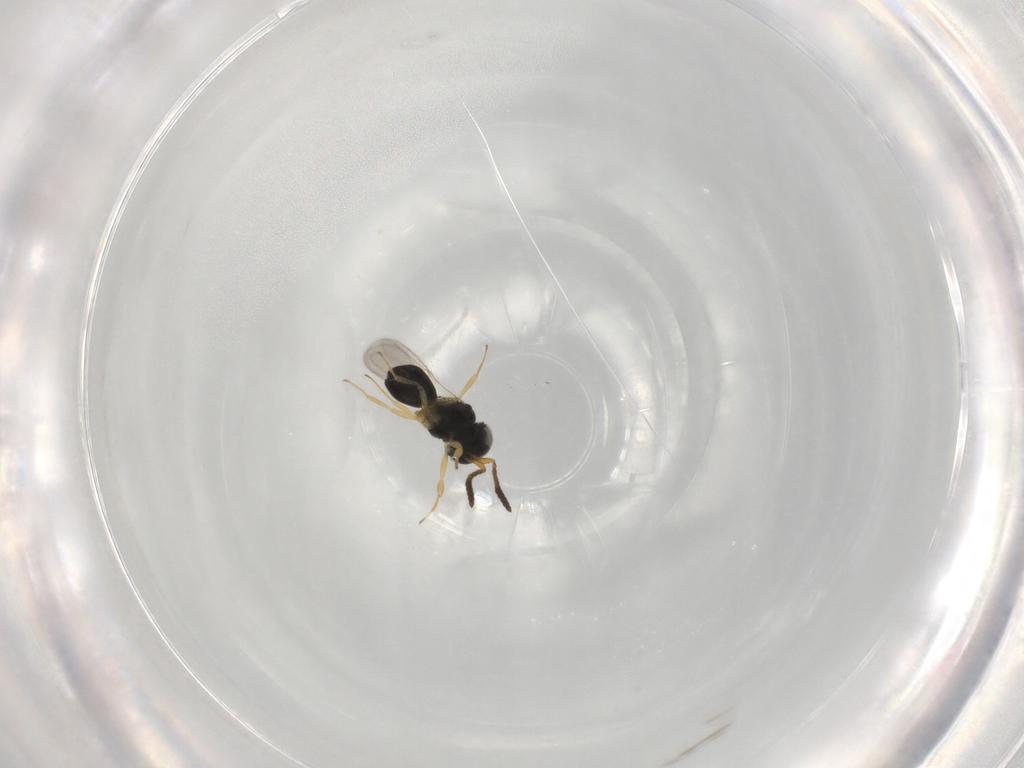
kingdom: Animalia
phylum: Arthropoda
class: Insecta
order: Hymenoptera
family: Scelionidae
